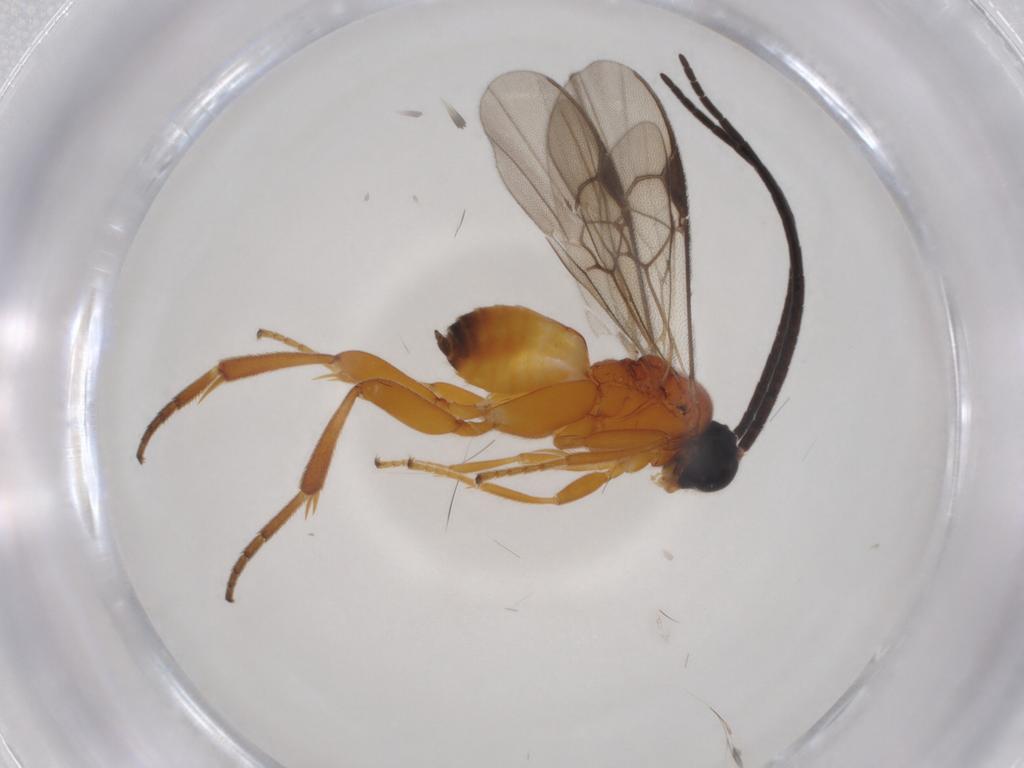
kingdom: Animalia
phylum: Arthropoda
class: Insecta
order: Hymenoptera
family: Braconidae
